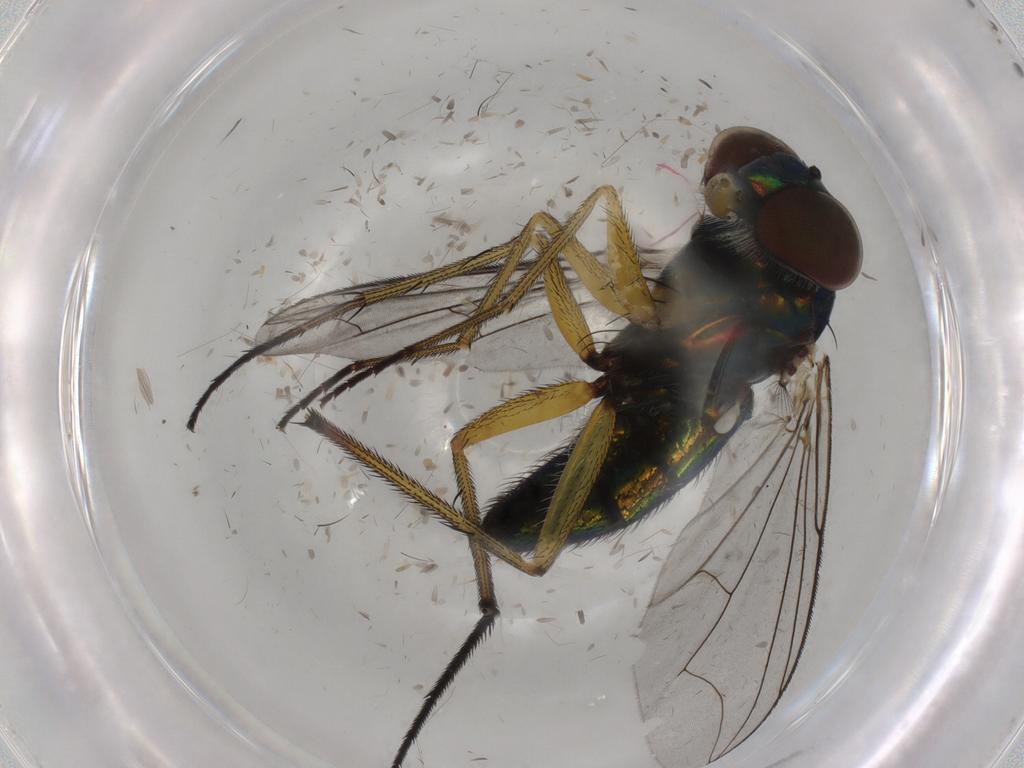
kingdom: Animalia
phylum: Arthropoda
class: Insecta
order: Diptera
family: Dolichopodidae
